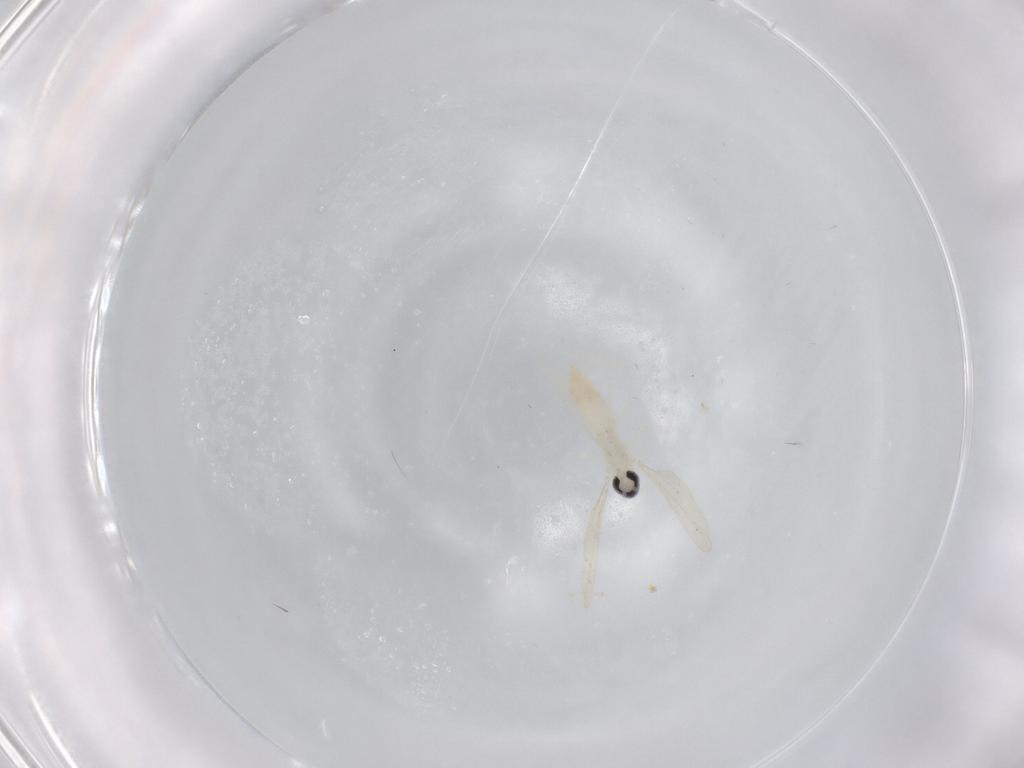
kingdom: Animalia
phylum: Arthropoda
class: Insecta
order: Diptera
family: Cecidomyiidae
